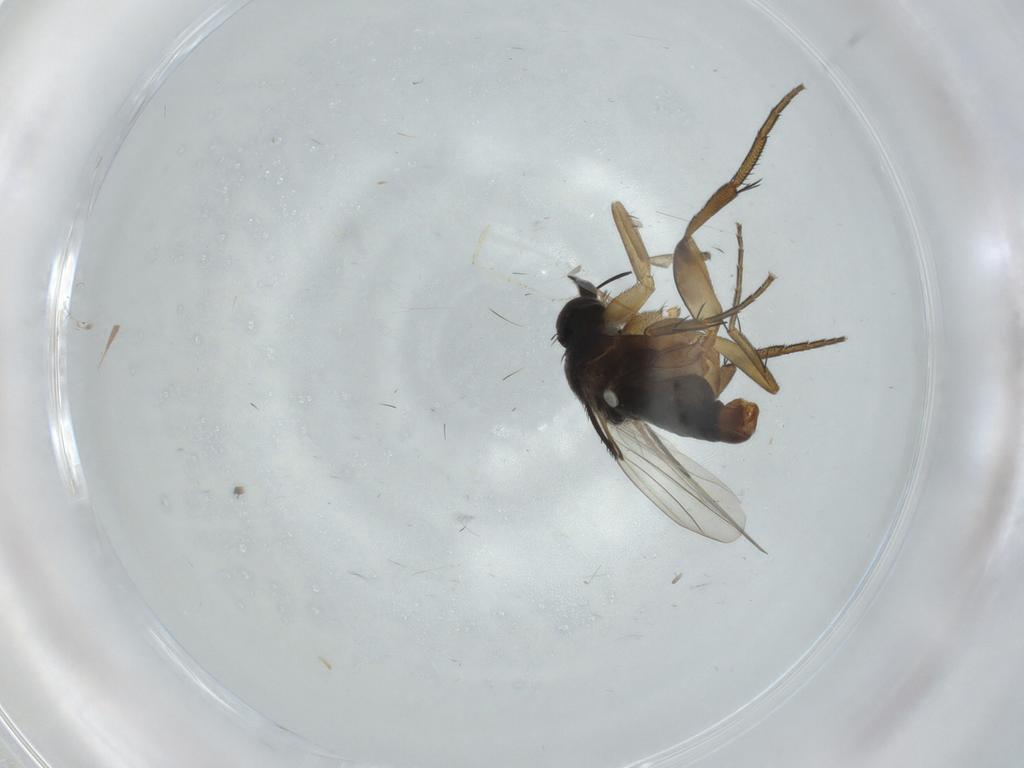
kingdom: Animalia
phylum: Arthropoda
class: Insecta
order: Diptera
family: Phoridae
